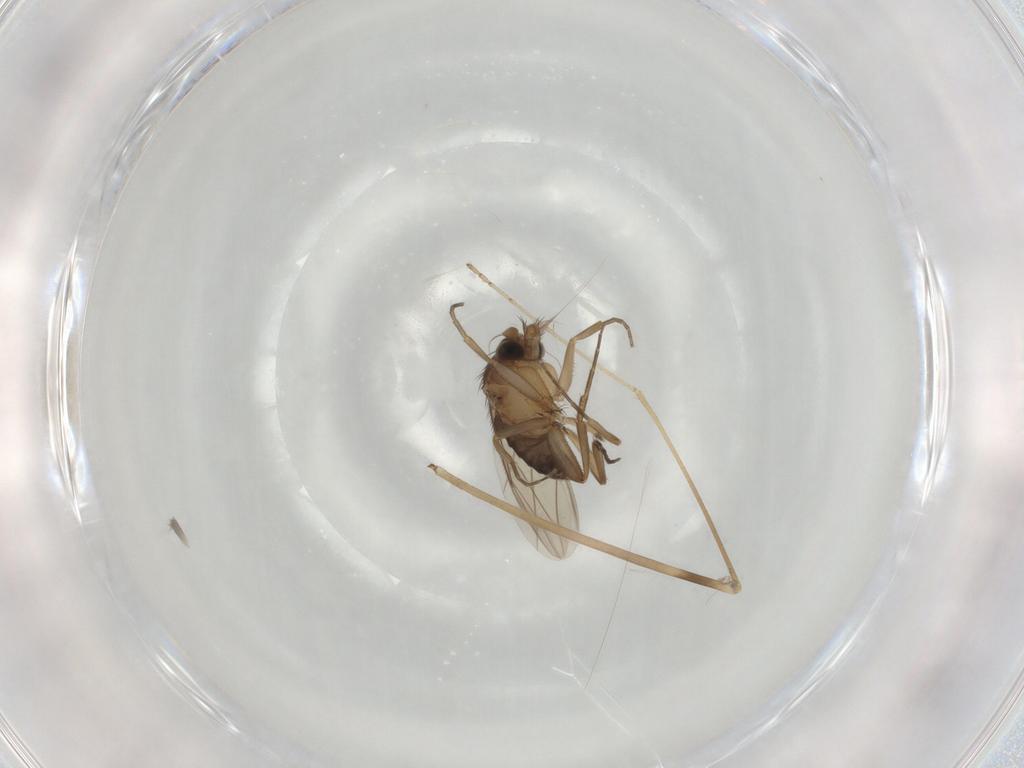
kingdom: Animalia
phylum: Arthropoda
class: Insecta
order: Diptera
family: Phoridae
